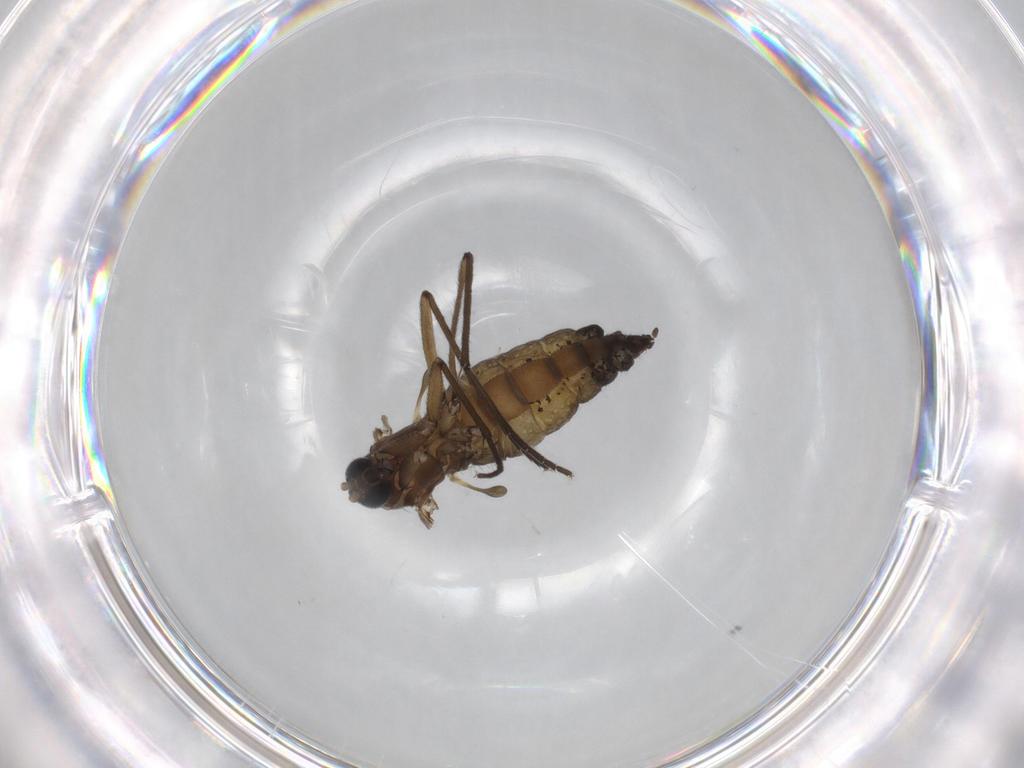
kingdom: Animalia
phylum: Arthropoda
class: Insecta
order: Diptera
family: Sciaridae
